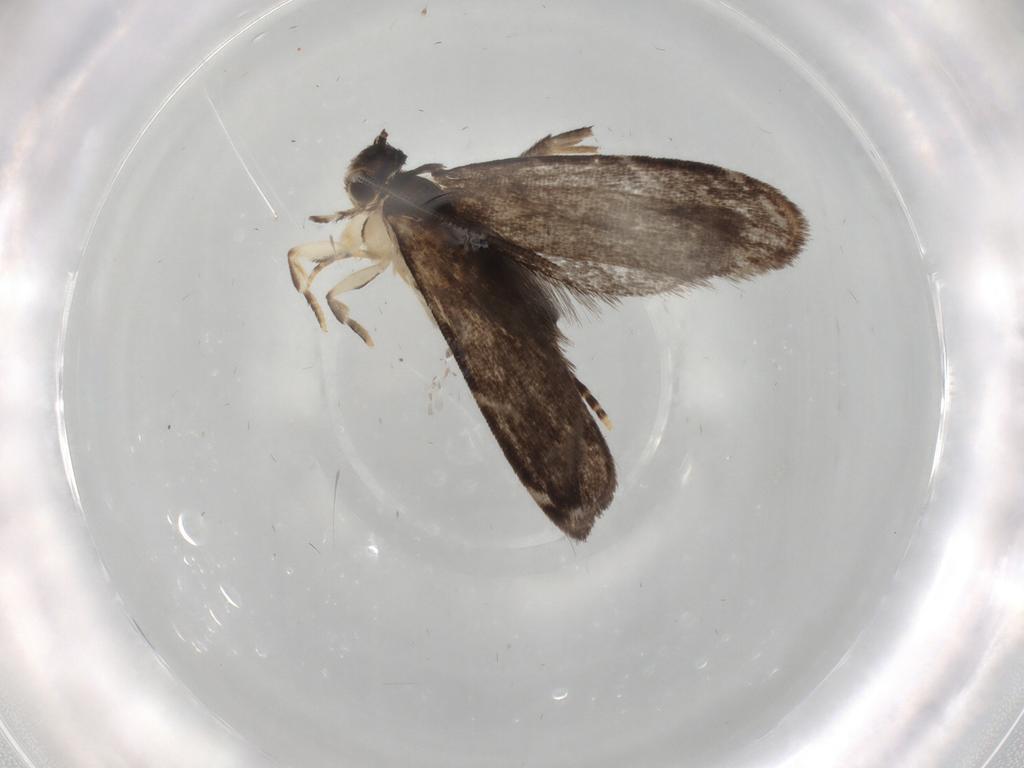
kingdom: Animalia
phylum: Arthropoda
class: Insecta
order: Lepidoptera
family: Dryadaulidae
